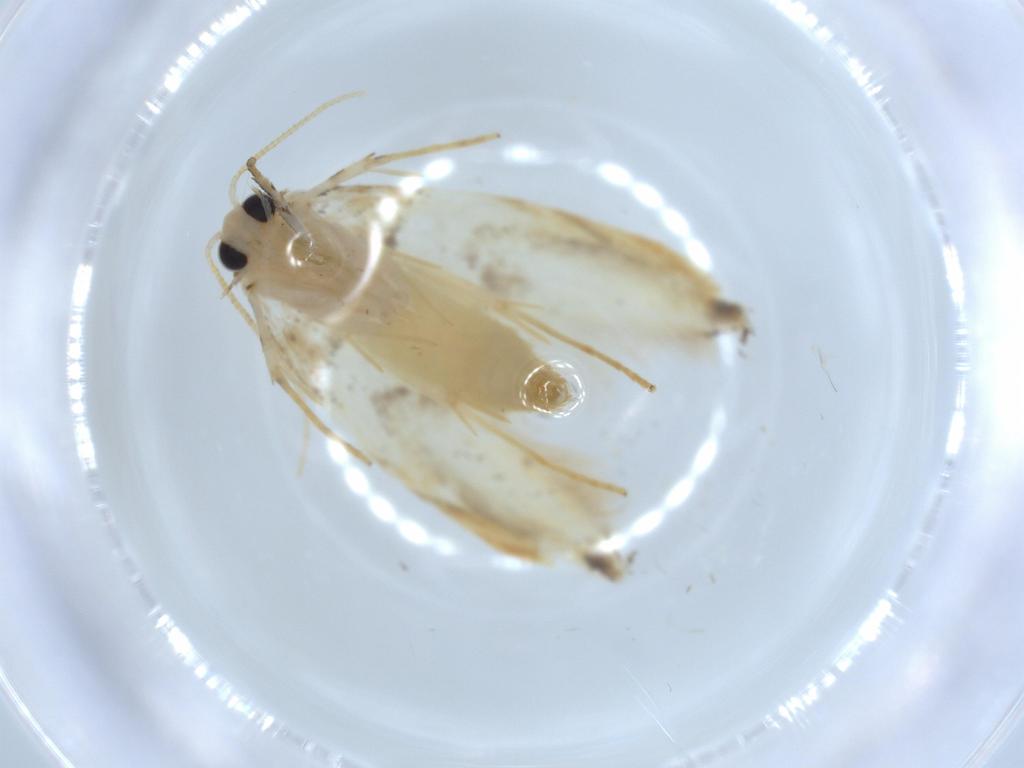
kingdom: Animalia
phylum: Arthropoda
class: Insecta
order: Lepidoptera
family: Tineidae
